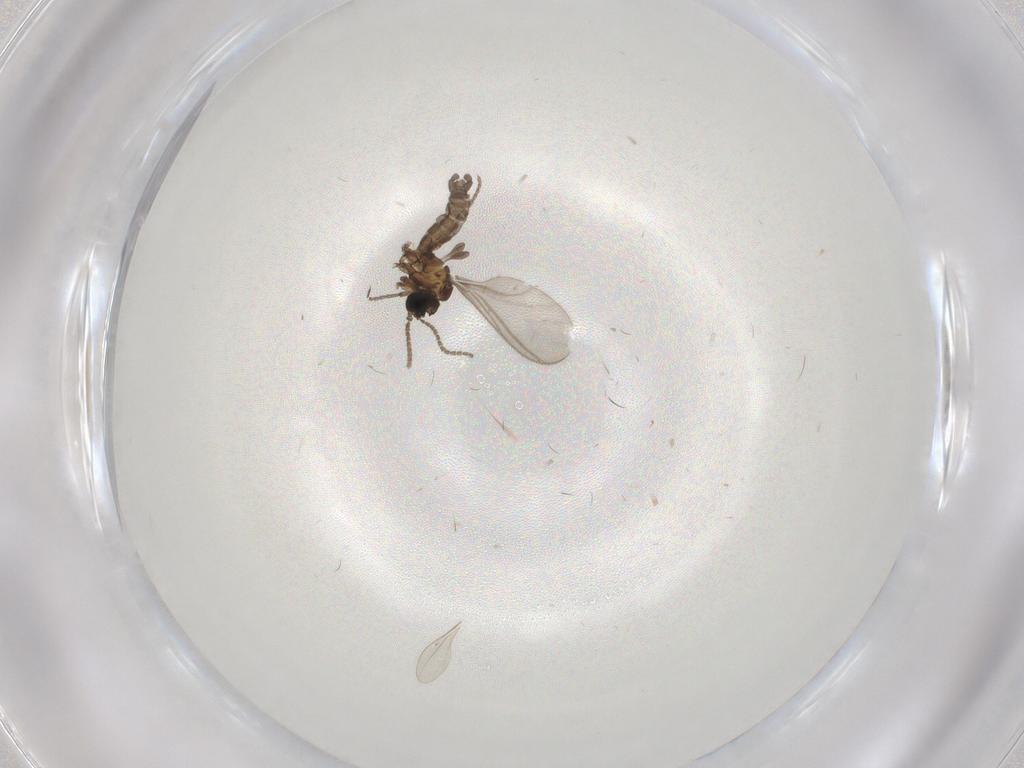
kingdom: Animalia
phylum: Arthropoda
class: Insecta
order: Diptera
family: Sciaridae
